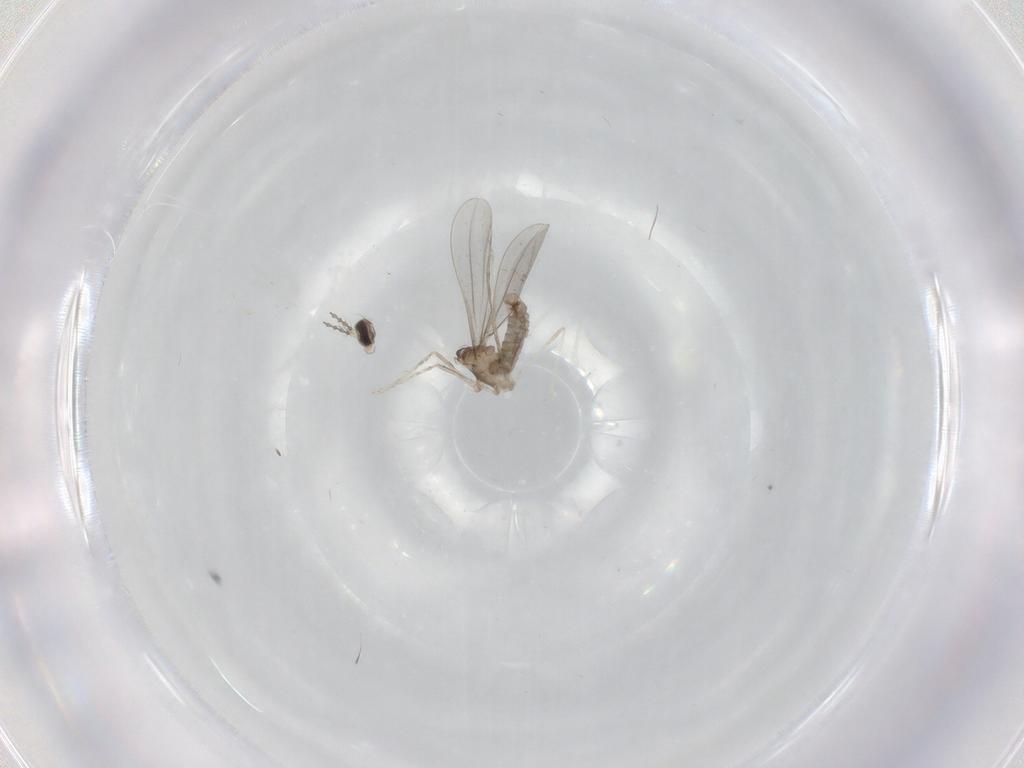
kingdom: Animalia
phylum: Arthropoda
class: Insecta
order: Diptera
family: Cecidomyiidae
